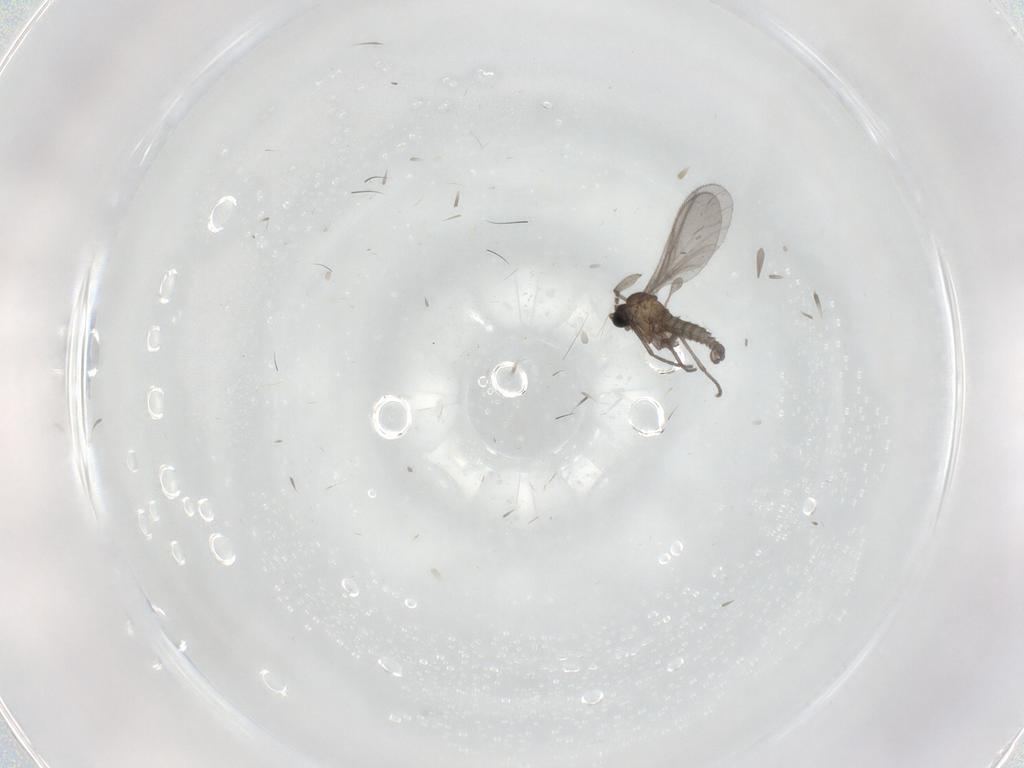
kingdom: Animalia
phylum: Arthropoda
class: Insecta
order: Diptera
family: Sciaridae
